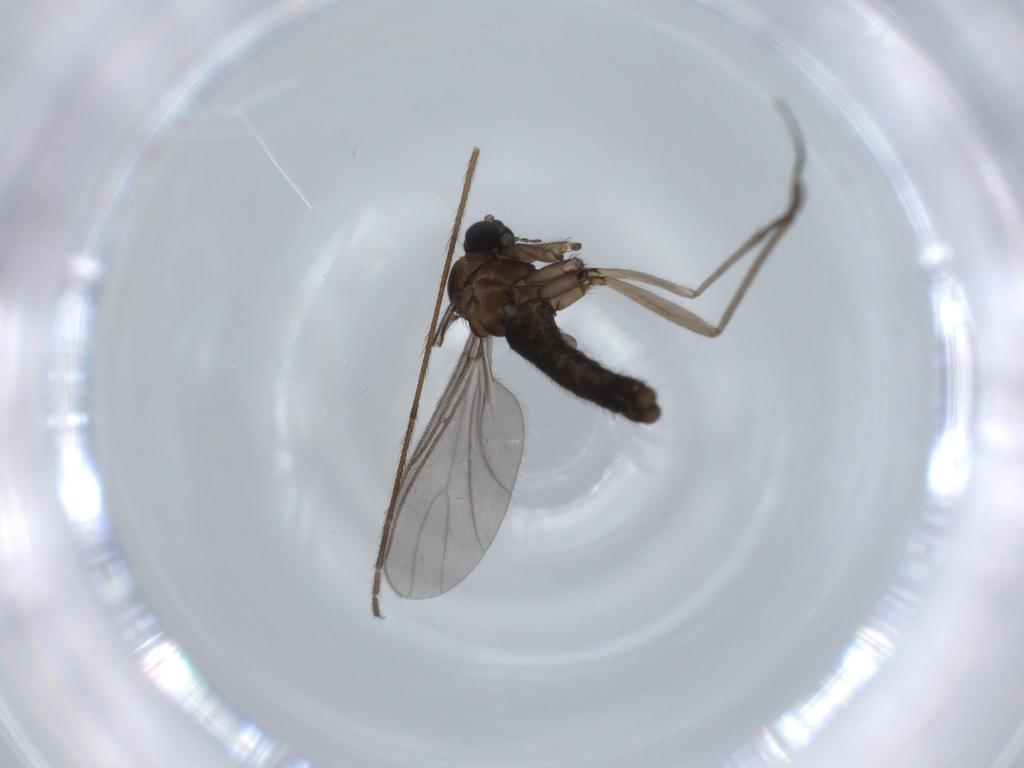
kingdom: Animalia
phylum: Arthropoda
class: Insecta
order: Diptera
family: Sciaridae
